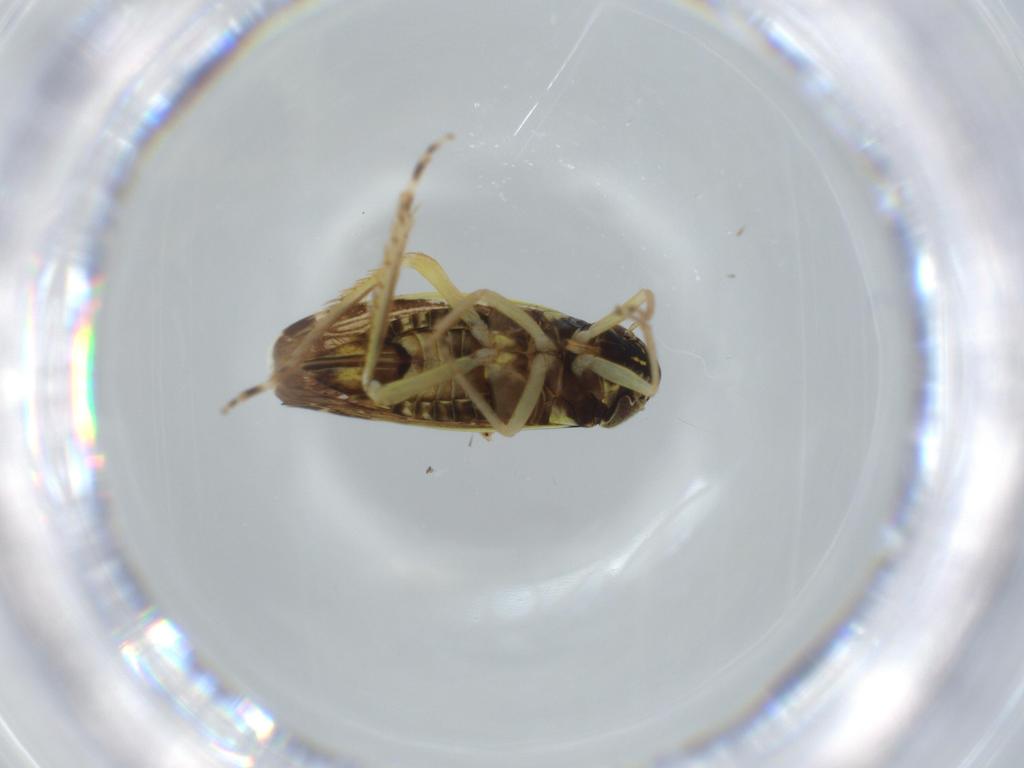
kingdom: Animalia
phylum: Arthropoda
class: Insecta
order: Hemiptera
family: Cicadellidae
